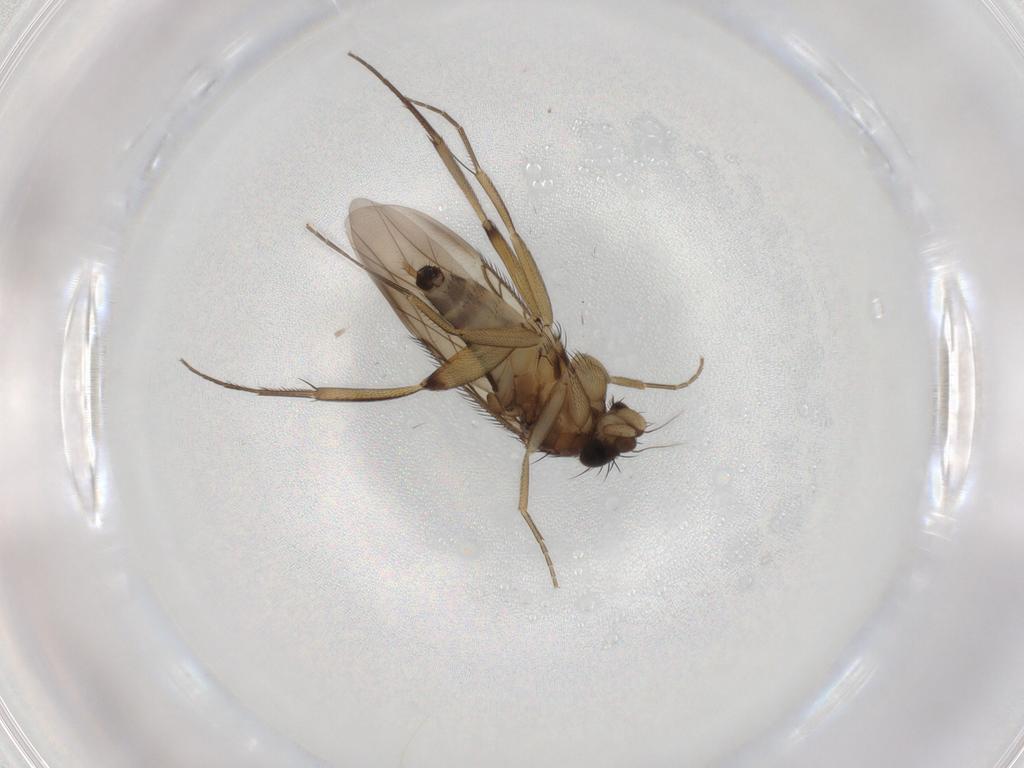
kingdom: Animalia
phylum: Arthropoda
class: Insecta
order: Diptera
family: Phoridae
